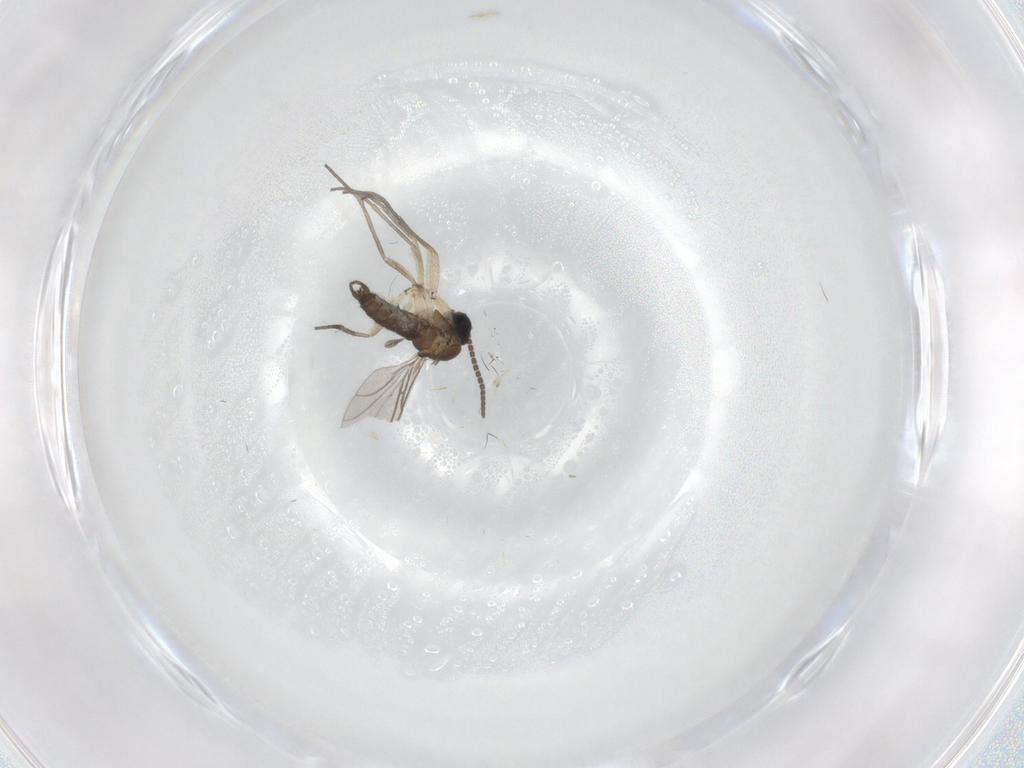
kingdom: Animalia
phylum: Arthropoda
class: Insecta
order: Diptera
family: Sciaridae
